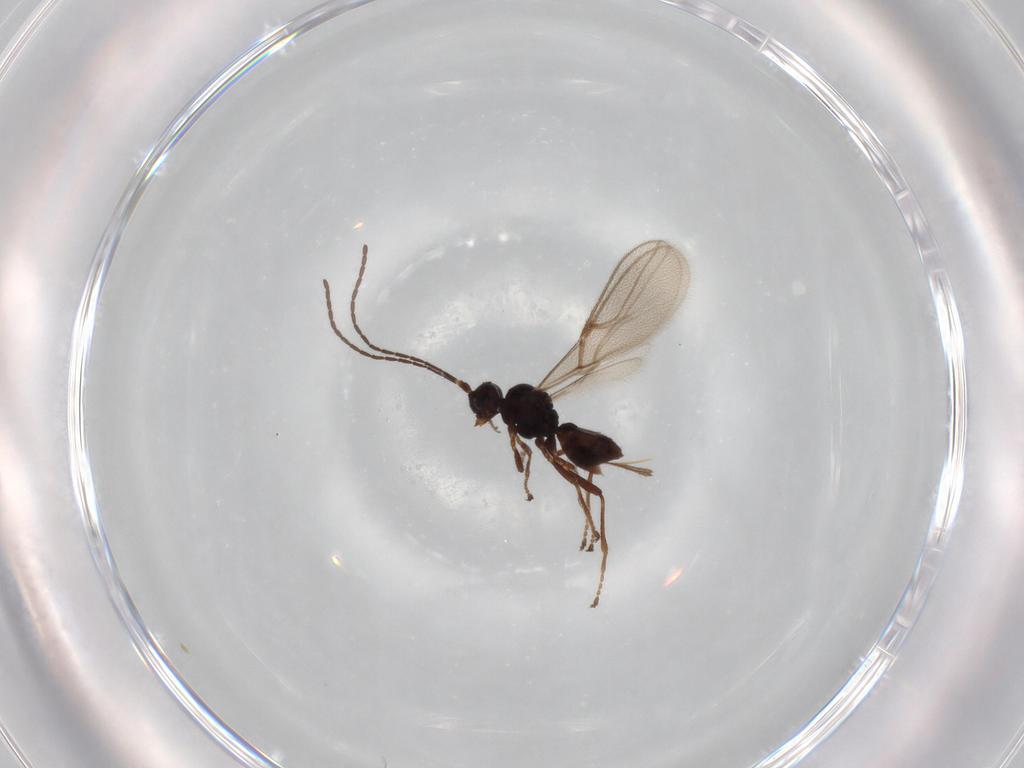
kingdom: Animalia
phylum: Arthropoda
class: Insecta
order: Hymenoptera
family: Braconidae
